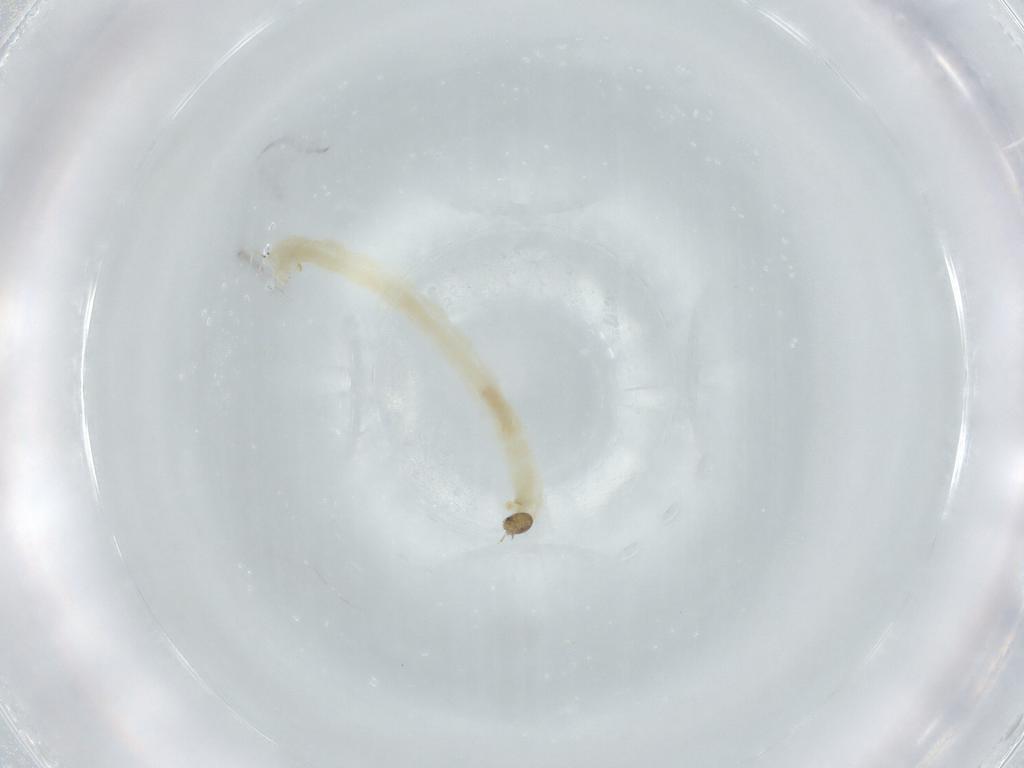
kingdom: Animalia
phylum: Arthropoda
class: Insecta
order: Diptera
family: Chironomidae
